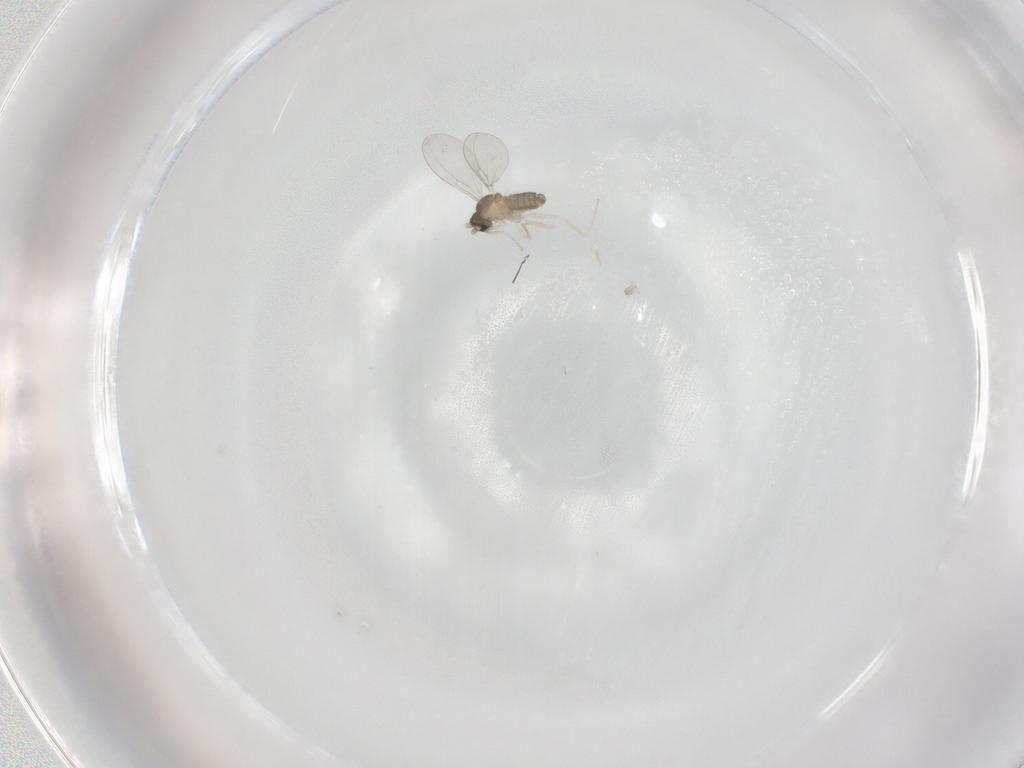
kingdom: Animalia
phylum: Arthropoda
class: Insecta
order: Diptera
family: Cecidomyiidae
